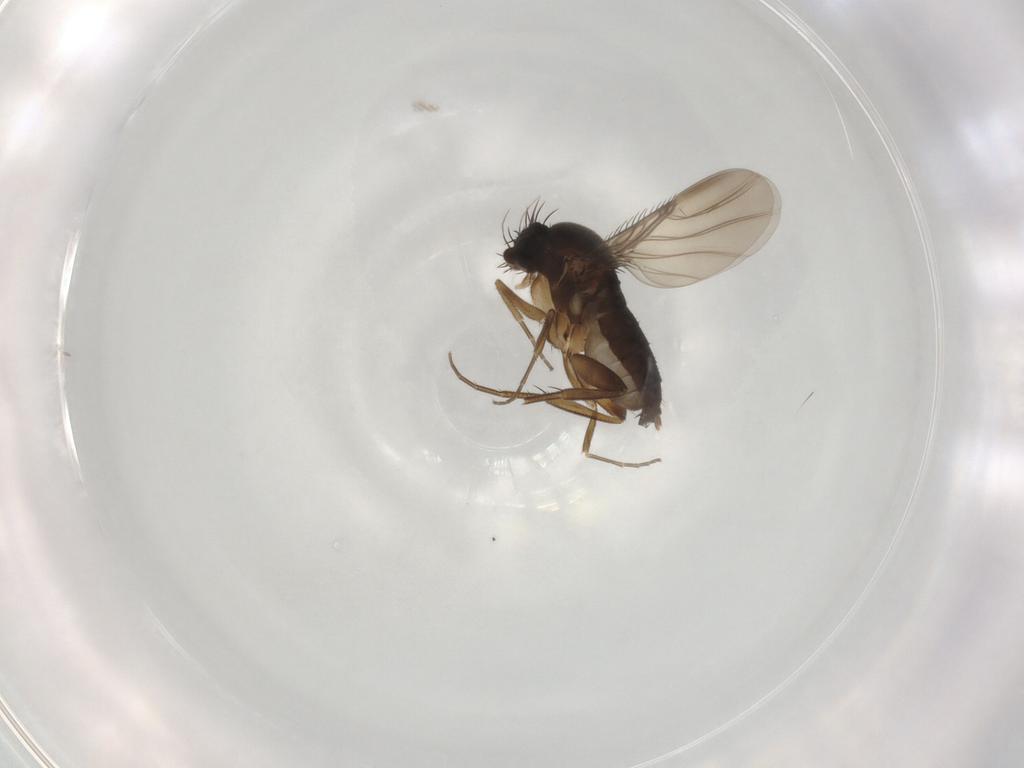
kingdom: Animalia
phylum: Arthropoda
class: Insecta
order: Diptera
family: Phoridae
